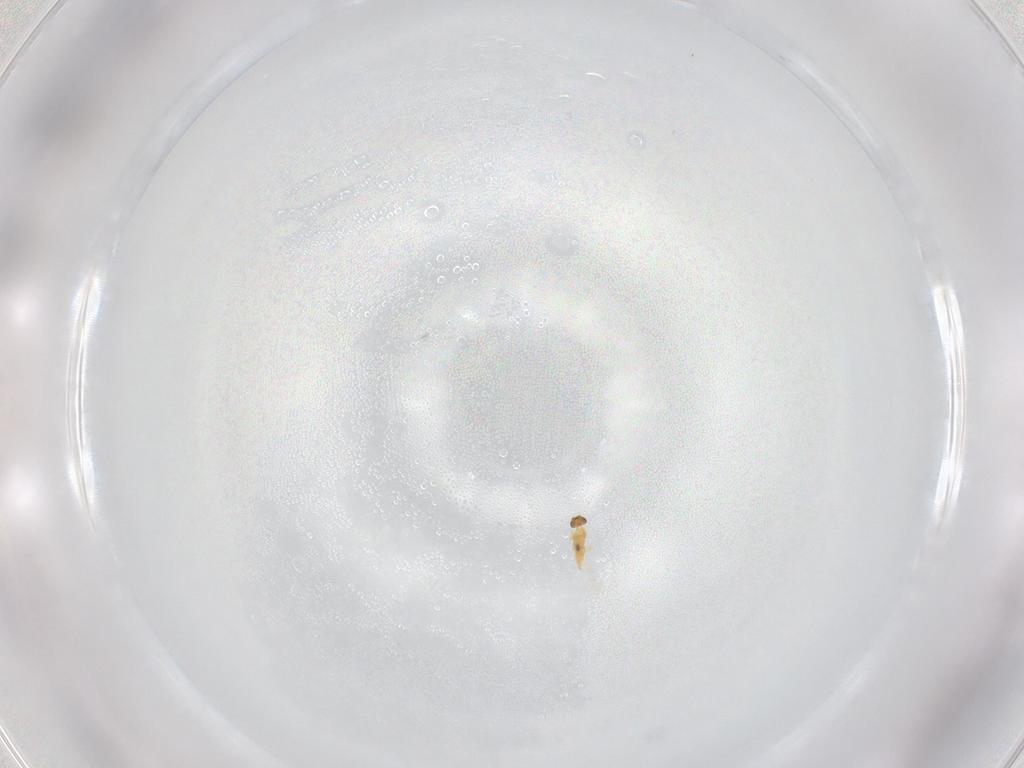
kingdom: Animalia
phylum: Arthropoda
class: Insecta
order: Hymenoptera
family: Mymaridae
